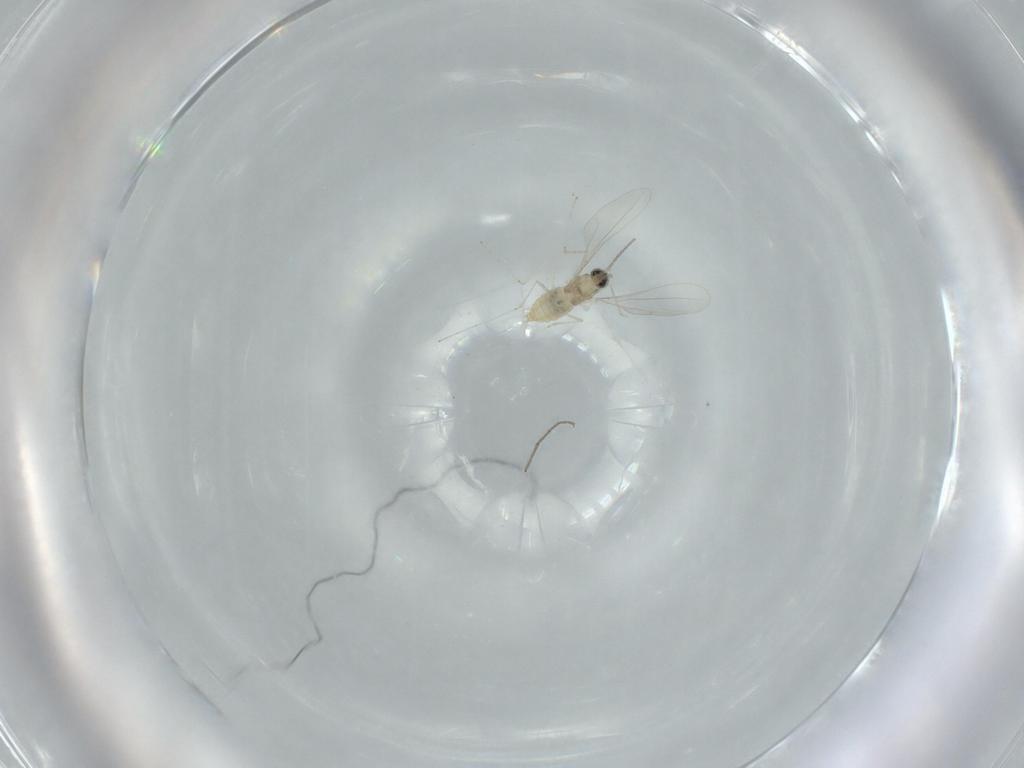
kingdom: Animalia
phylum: Arthropoda
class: Insecta
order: Diptera
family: Cecidomyiidae
